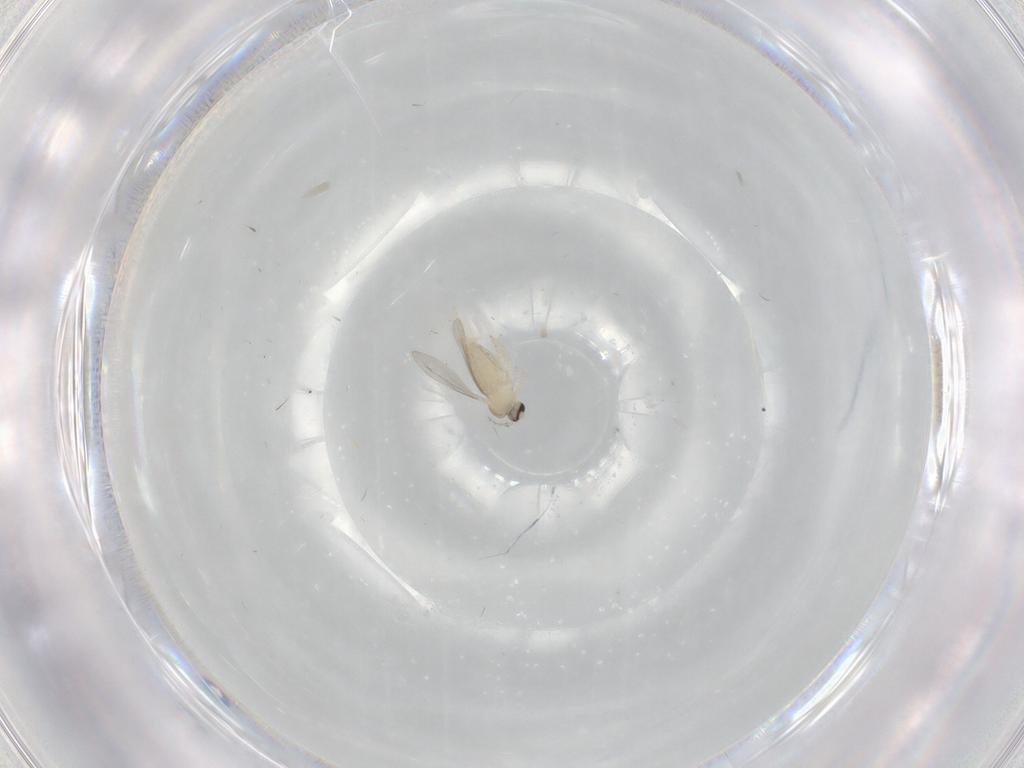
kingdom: Animalia
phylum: Arthropoda
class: Insecta
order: Diptera
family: Cecidomyiidae
